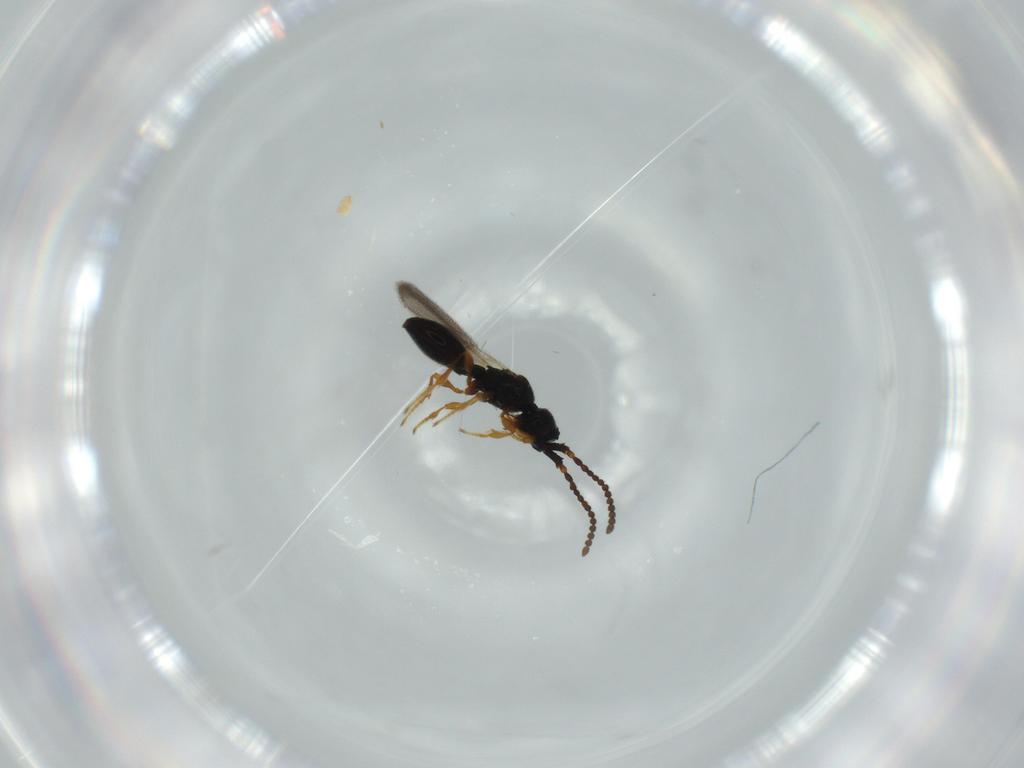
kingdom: Animalia
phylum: Arthropoda
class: Insecta
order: Hymenoptera
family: Diapriidae
